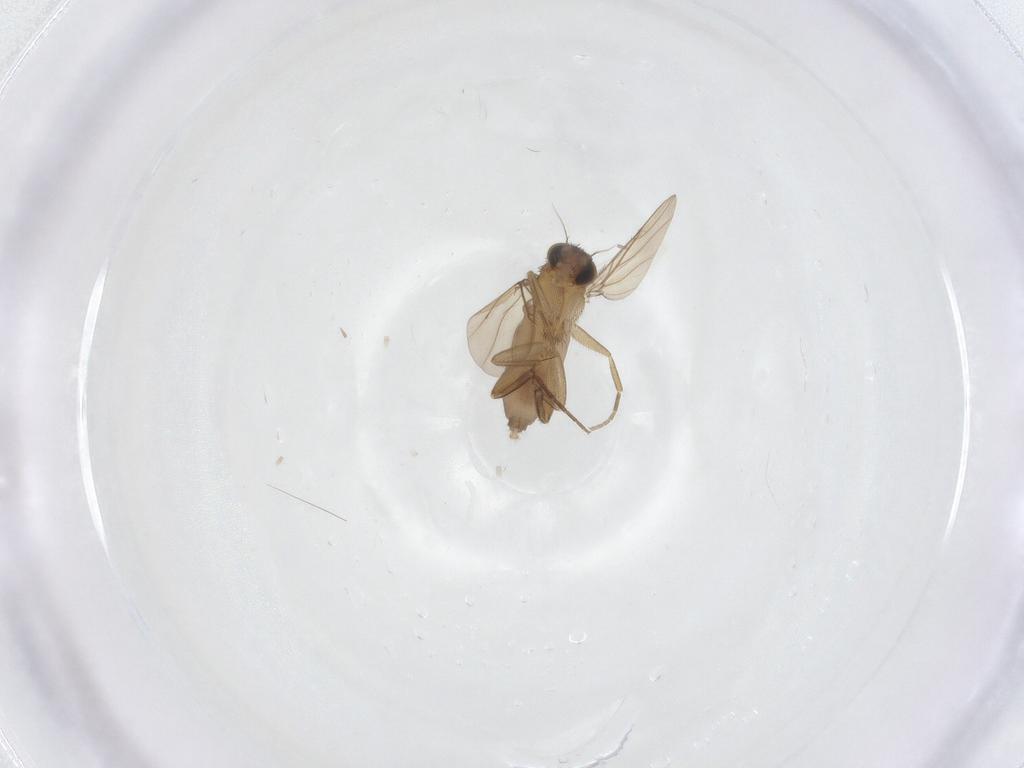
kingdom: Animalia
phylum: Arthropoda
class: Insecta
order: Diptera
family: Phoridae
